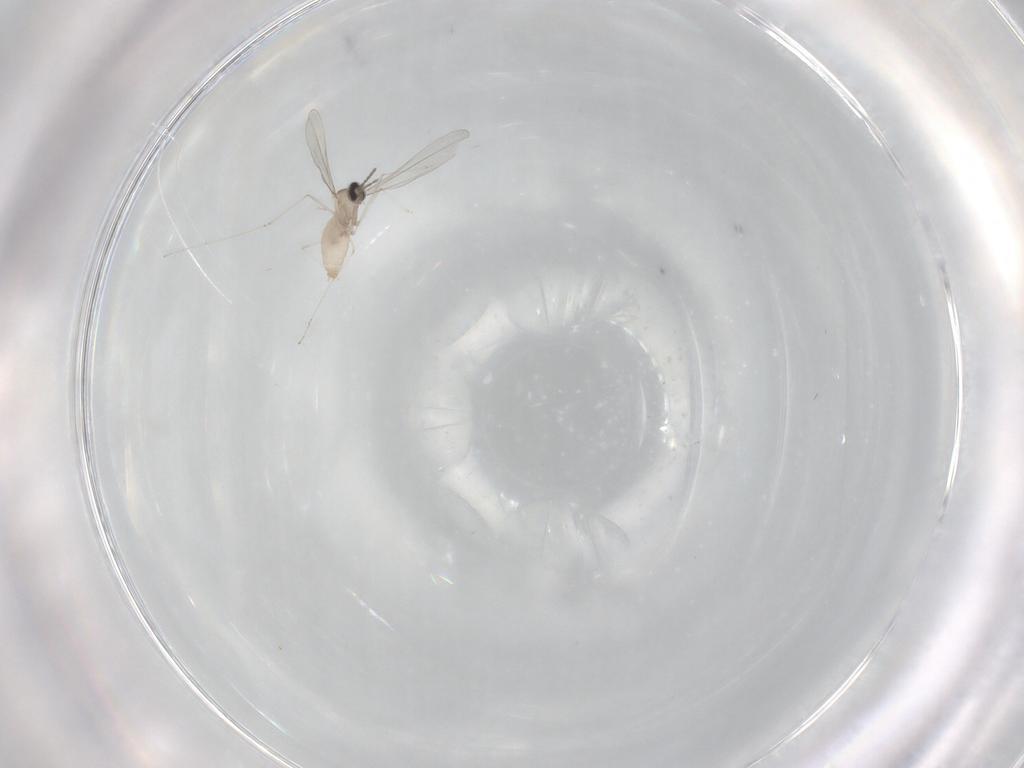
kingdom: Animalia
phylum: Arthropoda
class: Insecta
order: Diptera
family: Cecidomyiidae
